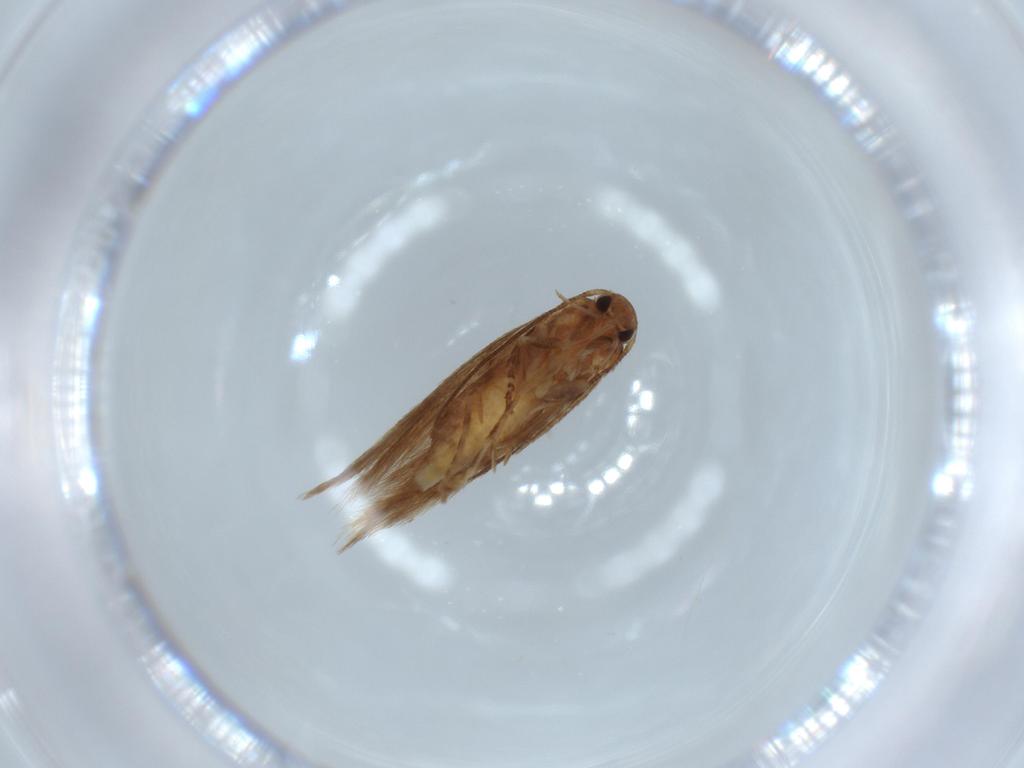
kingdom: Animalia
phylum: Arthropoda
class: Insecta
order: Lepidoptera
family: Elachistidae
